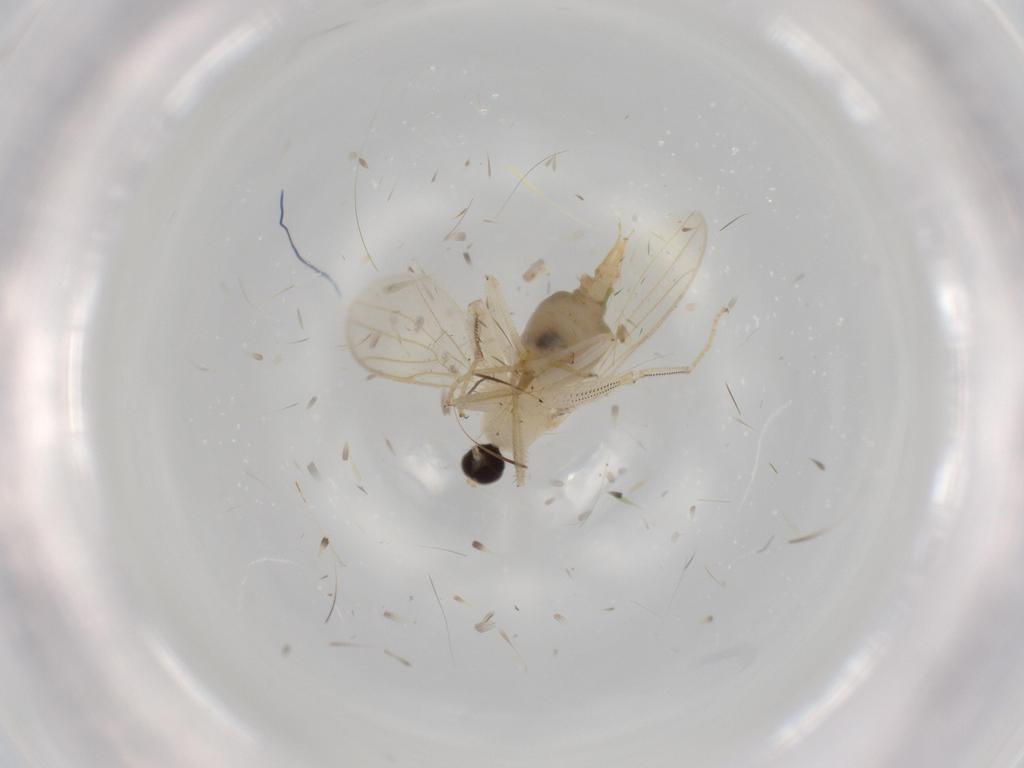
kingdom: Animalia
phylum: Arthropoda
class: Insecta
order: Diptera
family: Hybotidae
